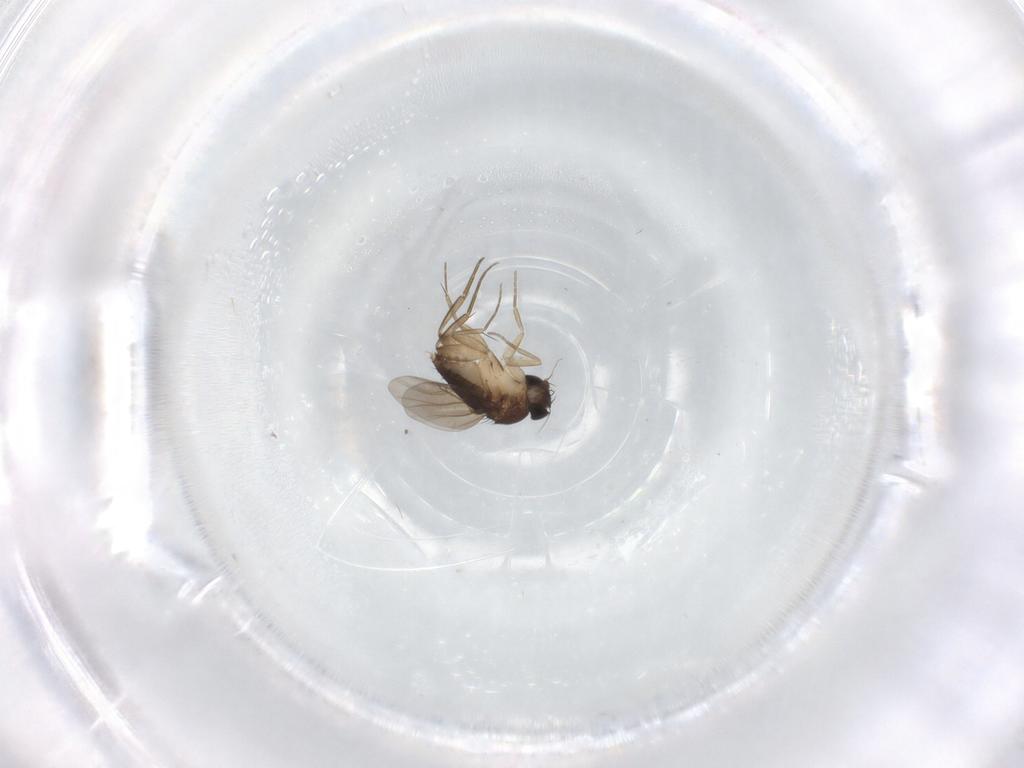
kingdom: Animalia
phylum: Arthropoda
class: Insecta
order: Diptera
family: Phoridae
